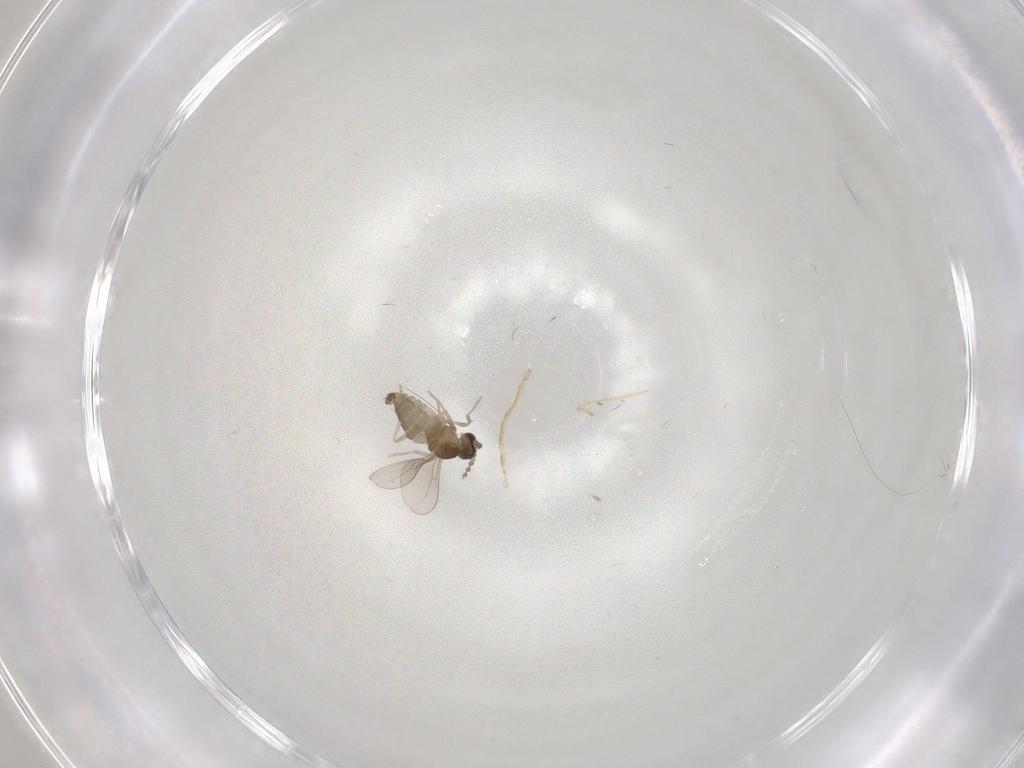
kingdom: Animalia
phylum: Arthropoda
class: Insecta
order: Diptera
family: Cecidomyiidae
